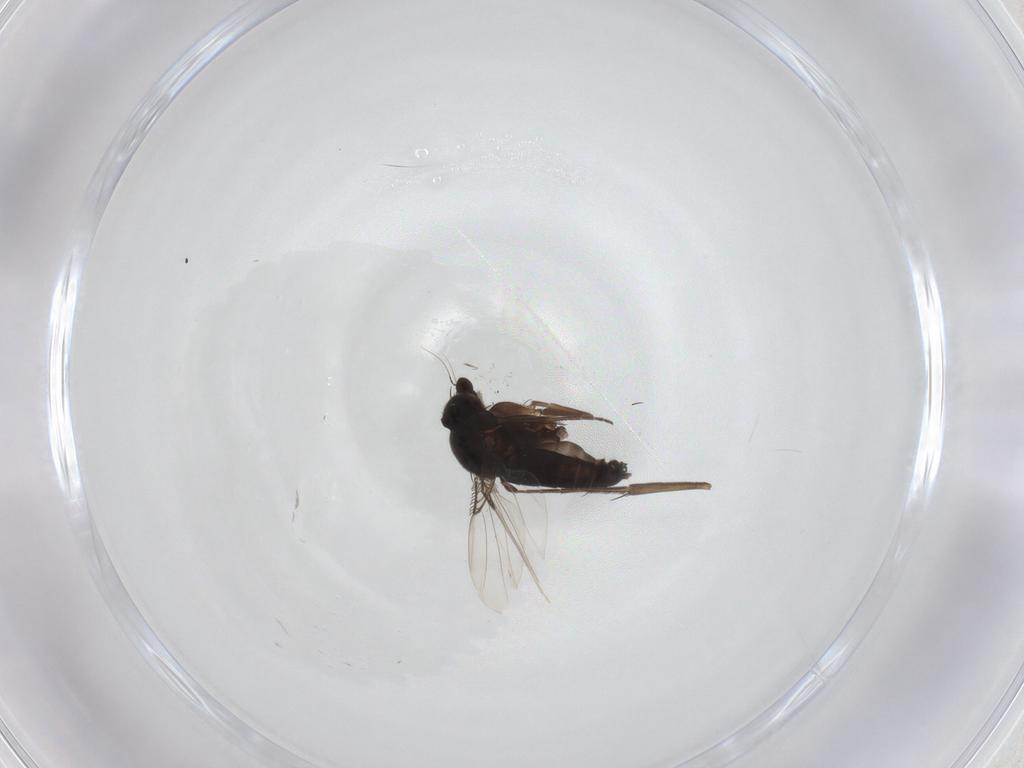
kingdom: Animalia
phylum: Arthropoda
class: Insecta
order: Diptera
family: Phoridae
